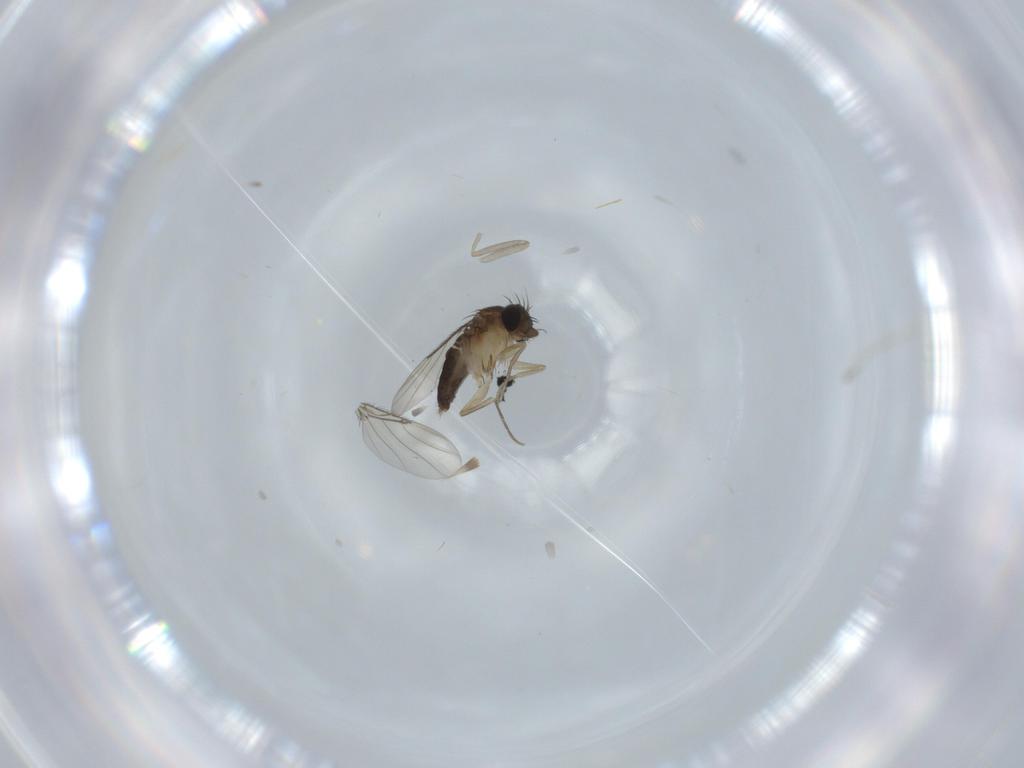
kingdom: Animalia
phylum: Arthropoda
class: Insecta
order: Diptera
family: Phoridae
